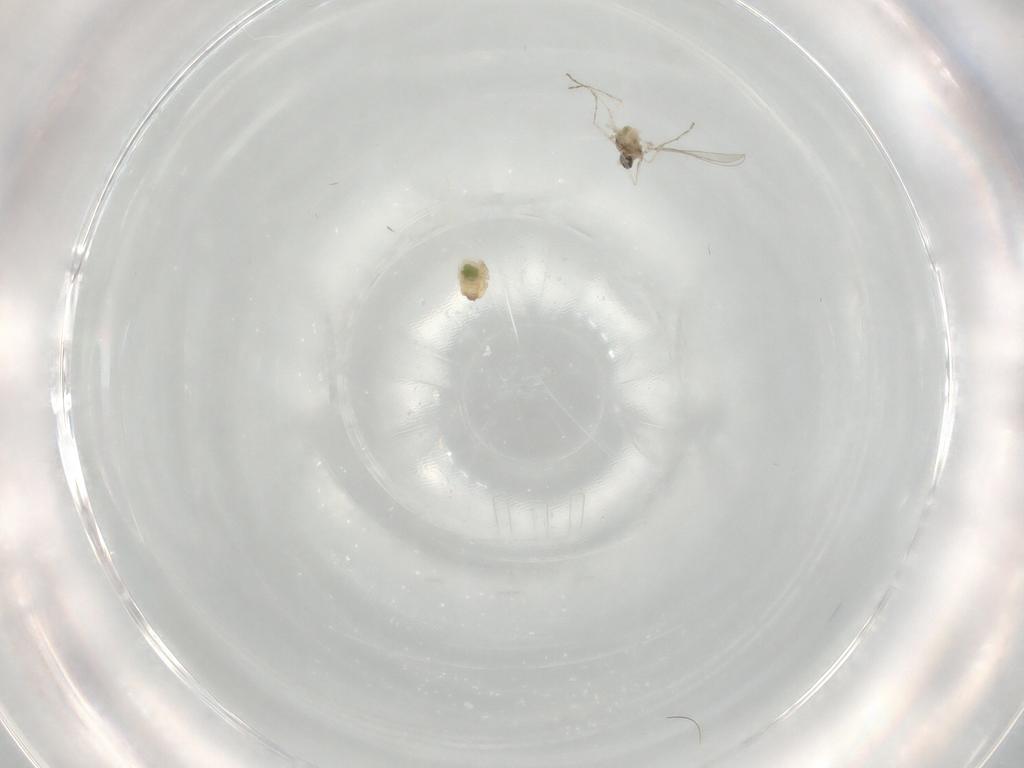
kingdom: Animalia
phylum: Arthropoda
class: Insecta
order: Diptera
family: Cecidomyiidae
